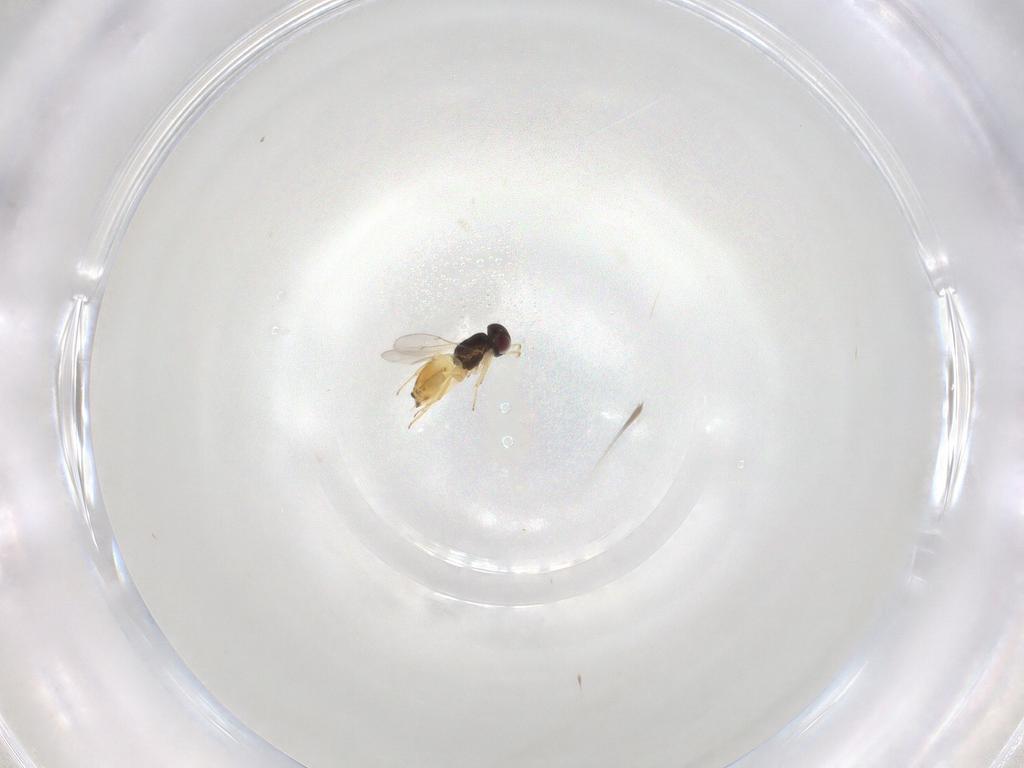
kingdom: Animalia
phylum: Arthropoda
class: Insecta
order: Hymenoptera
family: Encyrtidae
